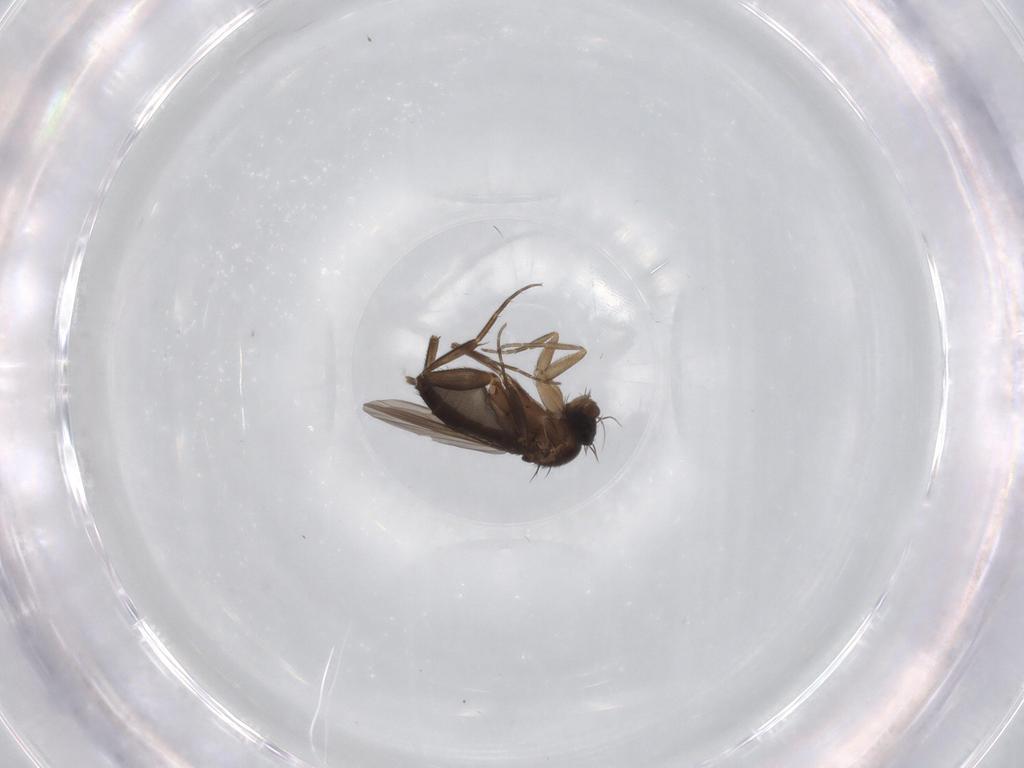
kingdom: Animalia
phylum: Arthropoda
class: Insecta
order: Diptera
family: Phoridae
